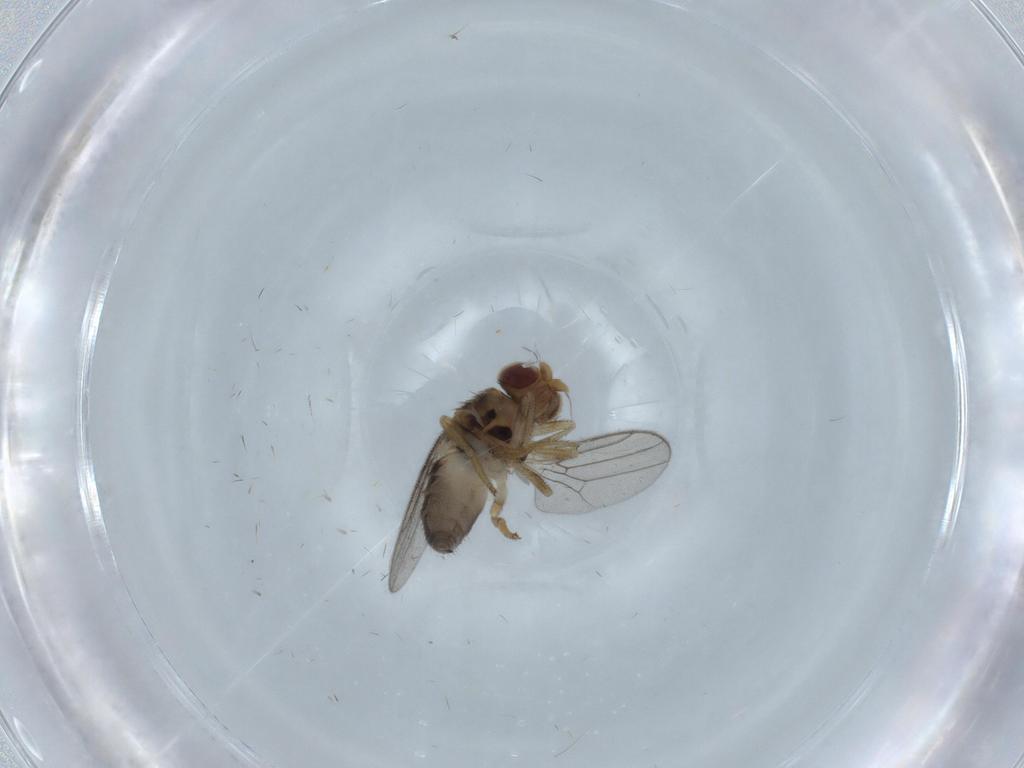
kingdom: Animalia
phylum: Arthropoda
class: Insecta
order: Diptera
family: Chloropidae
